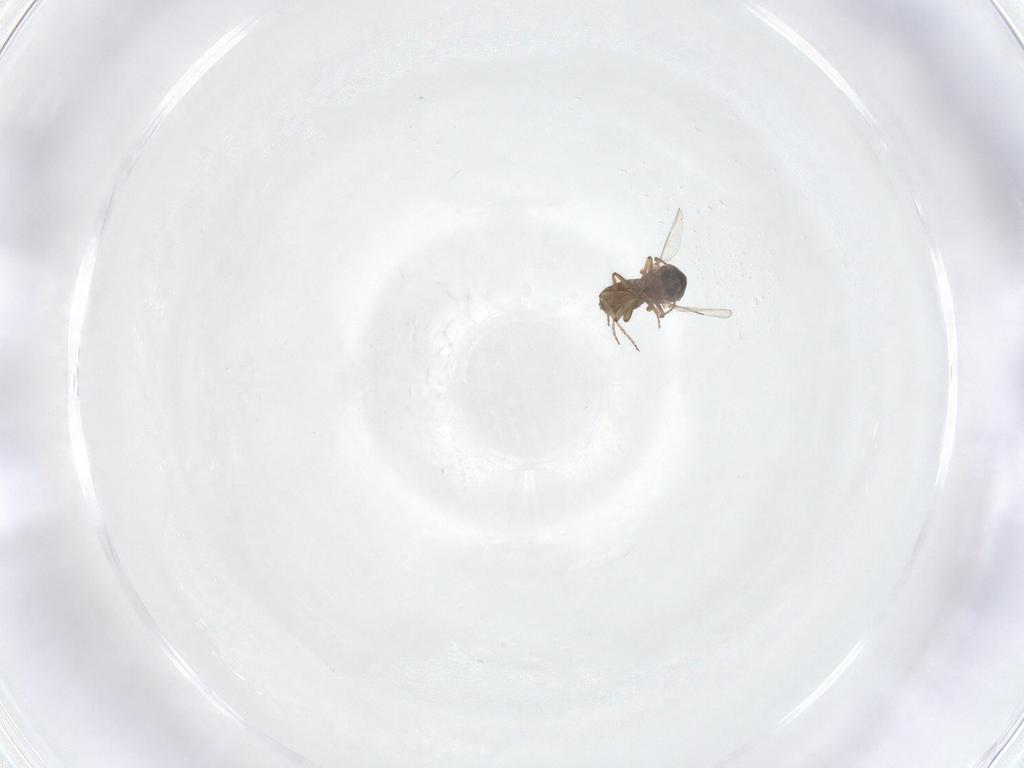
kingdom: Animalia
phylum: Arthropoda
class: Insecta
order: Diptera
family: Ceratopogonidae
